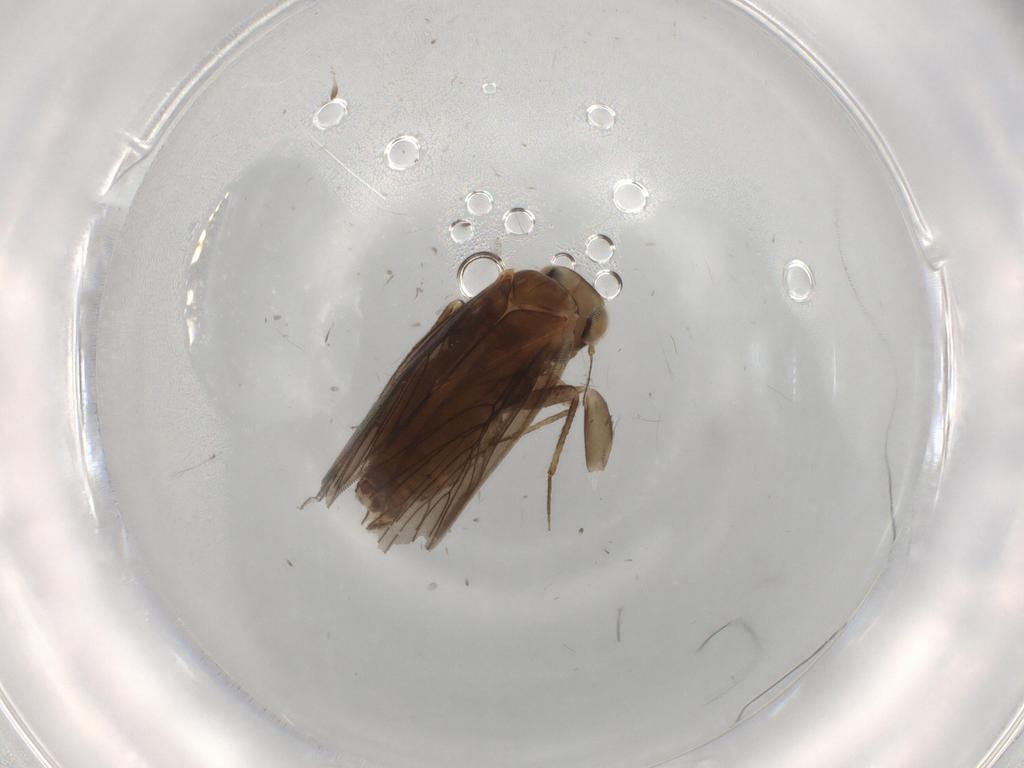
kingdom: Animalia
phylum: Arthropoda
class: Insecta
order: Psocodea
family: Lepidopsocidae
